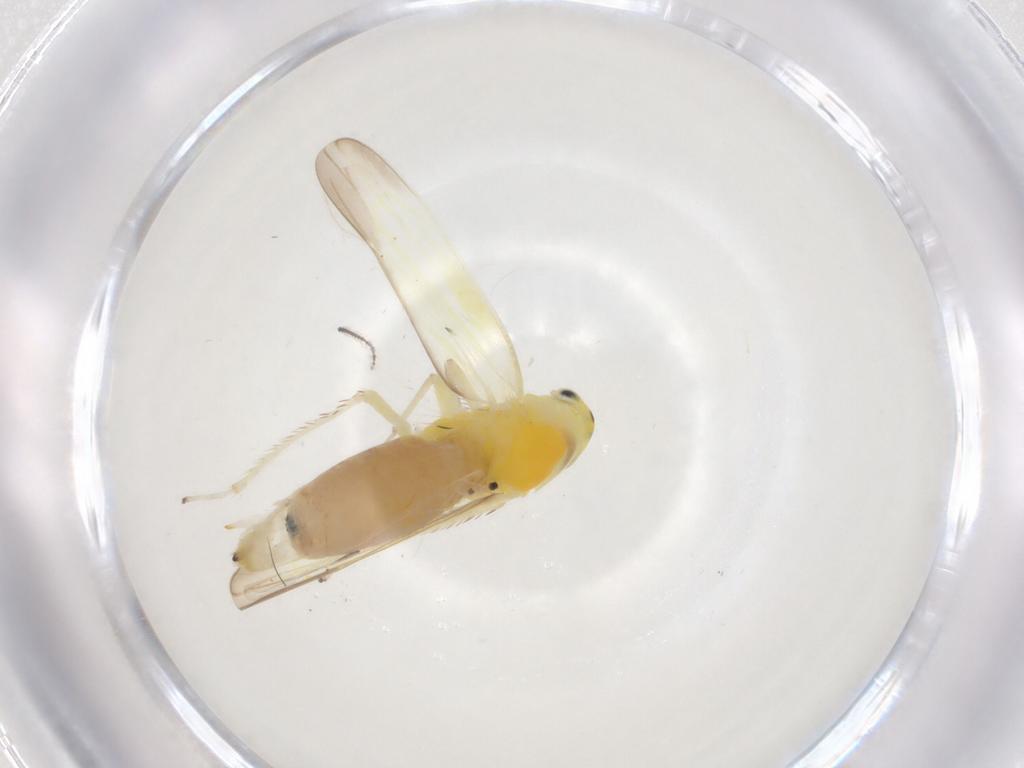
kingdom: Animalia
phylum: Arthropoda
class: Insecta
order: Hemiptera
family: Cicadellidae
